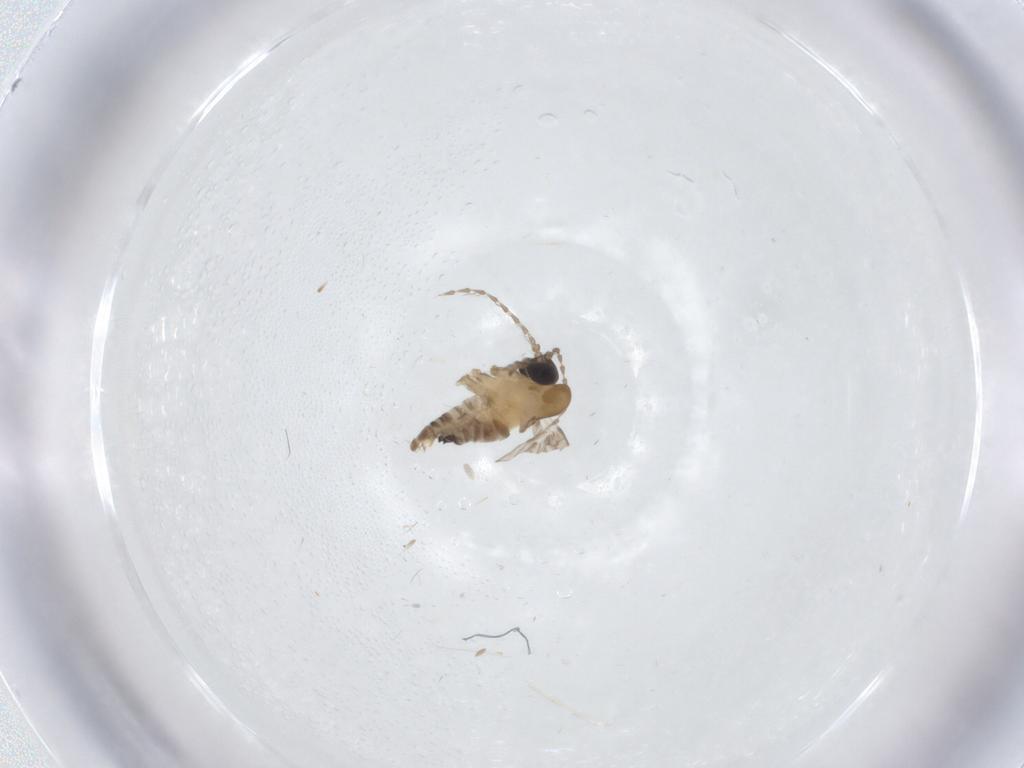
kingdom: Animalia
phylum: Arthropoda
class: Insecta
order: Diptera
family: Psychodidae
